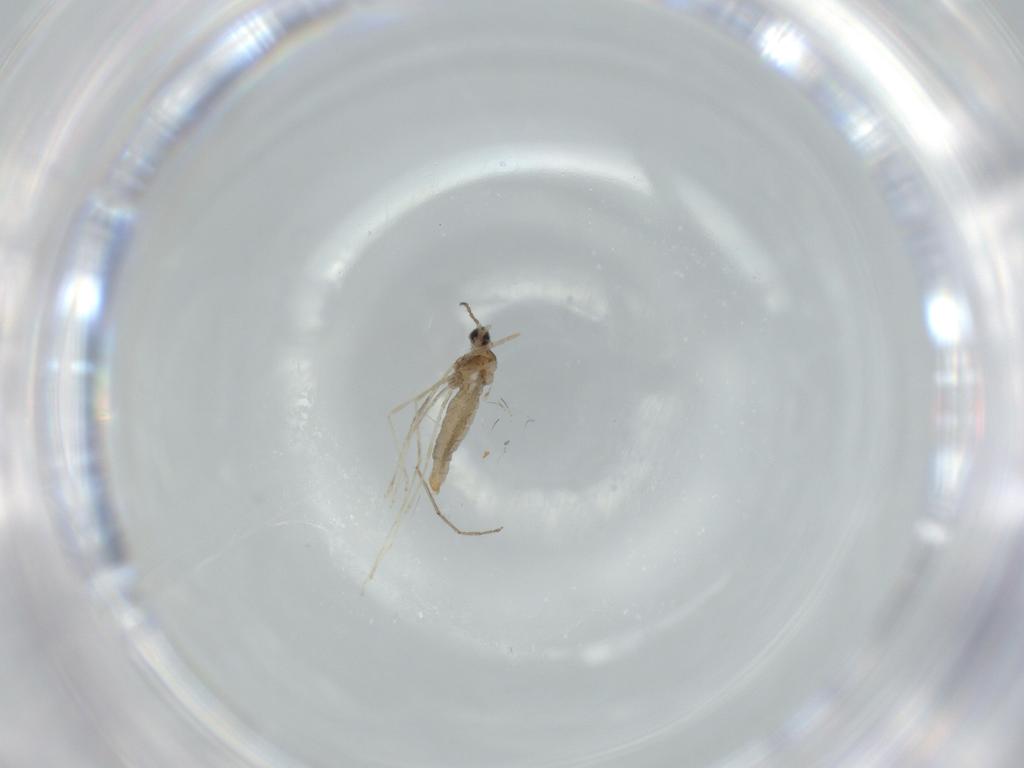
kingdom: Animalia
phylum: Arthropoda
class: Insecta
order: Diptera
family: Cecidomyiidae
